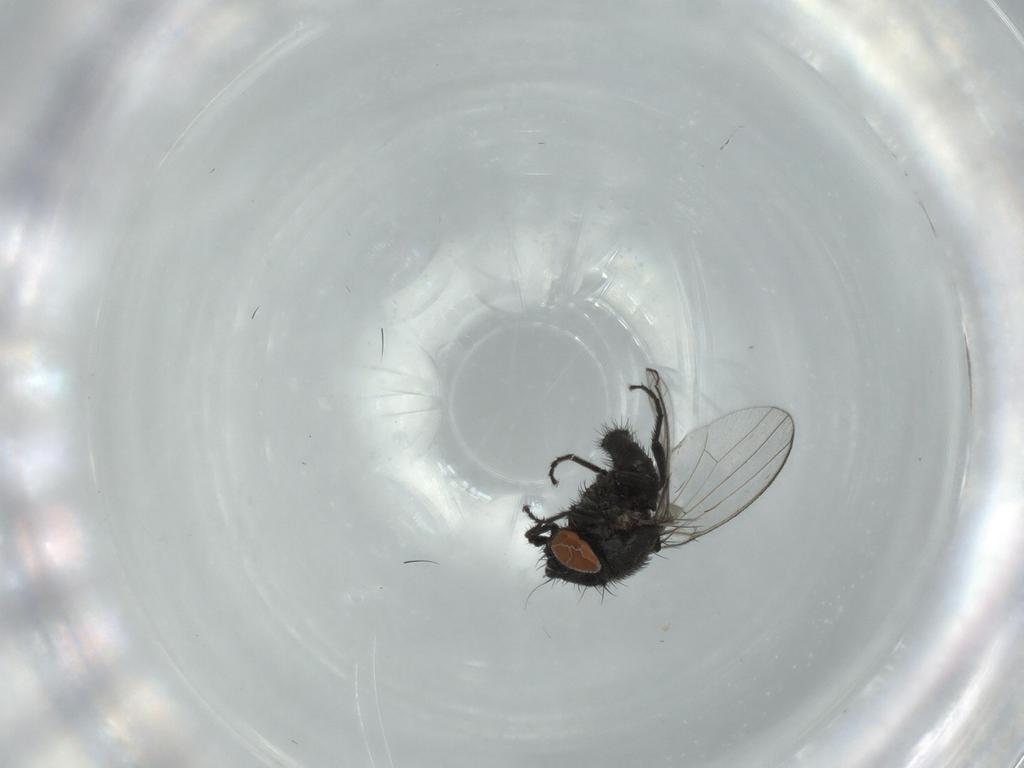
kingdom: Animalia
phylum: Arthropoda
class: Insecta
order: Diptera
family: Milichiidae
